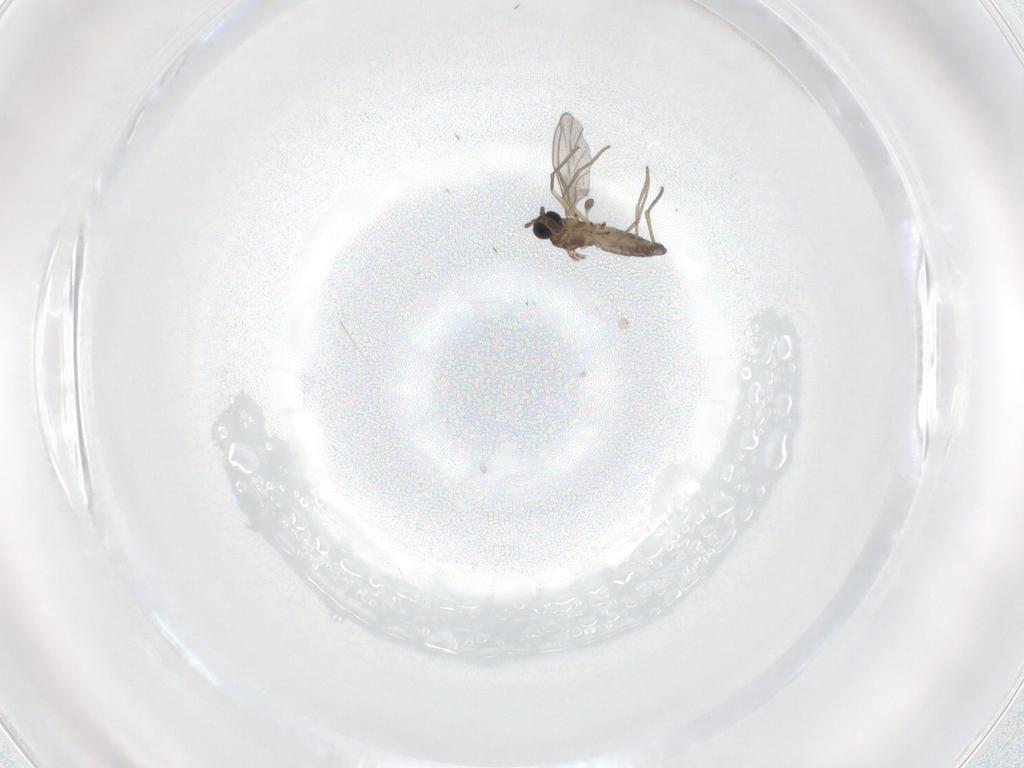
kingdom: Animalia
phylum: Arthropoda
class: Insecta
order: Diptera
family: Sciaridae
